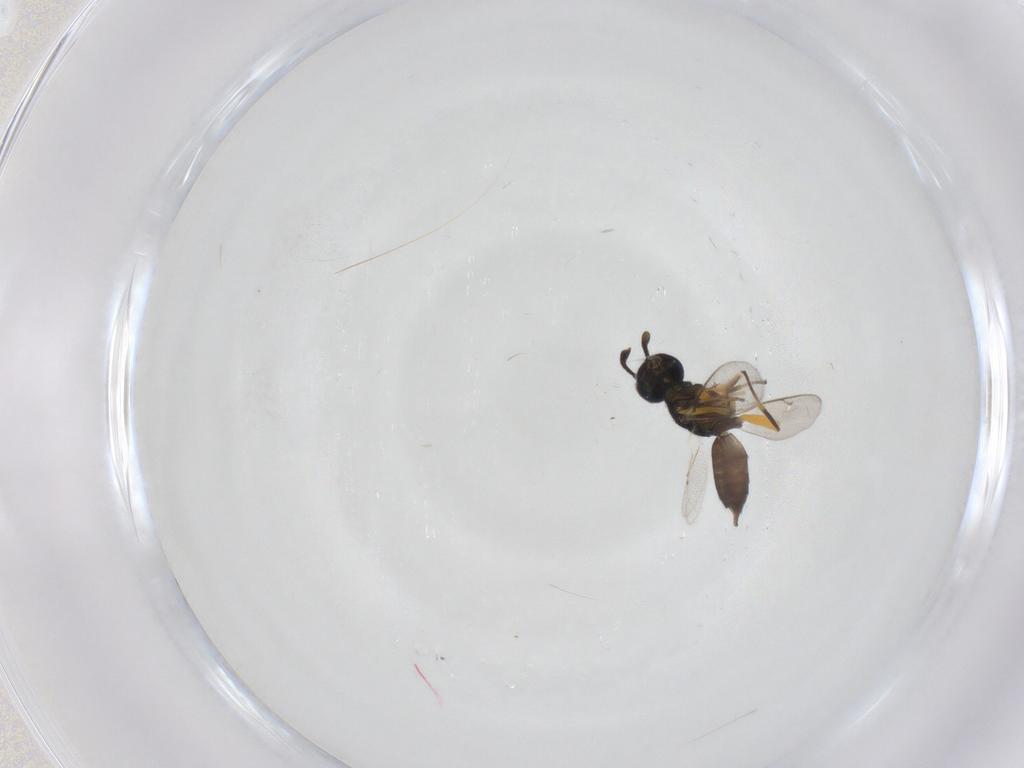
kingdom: Animalia
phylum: Arthropoda
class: Insecta
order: Hymenoptera
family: Eupelmidae
